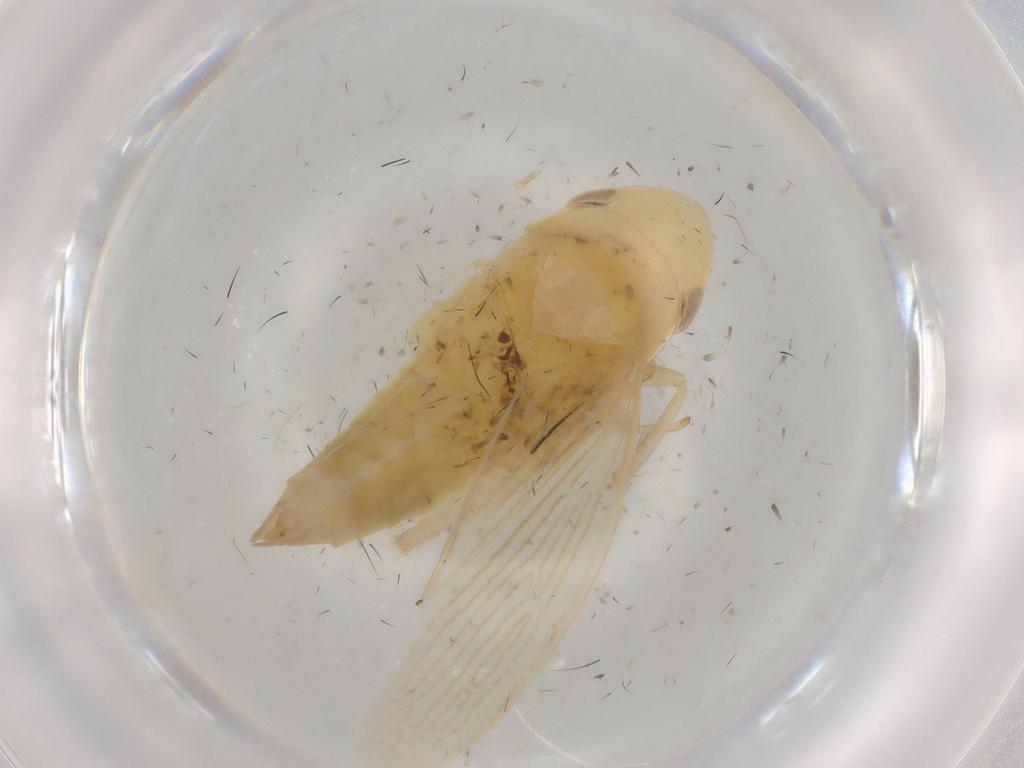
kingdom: Animalia
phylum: Arthropoda
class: Insecta
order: Hemiptera
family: Cicadellidae
